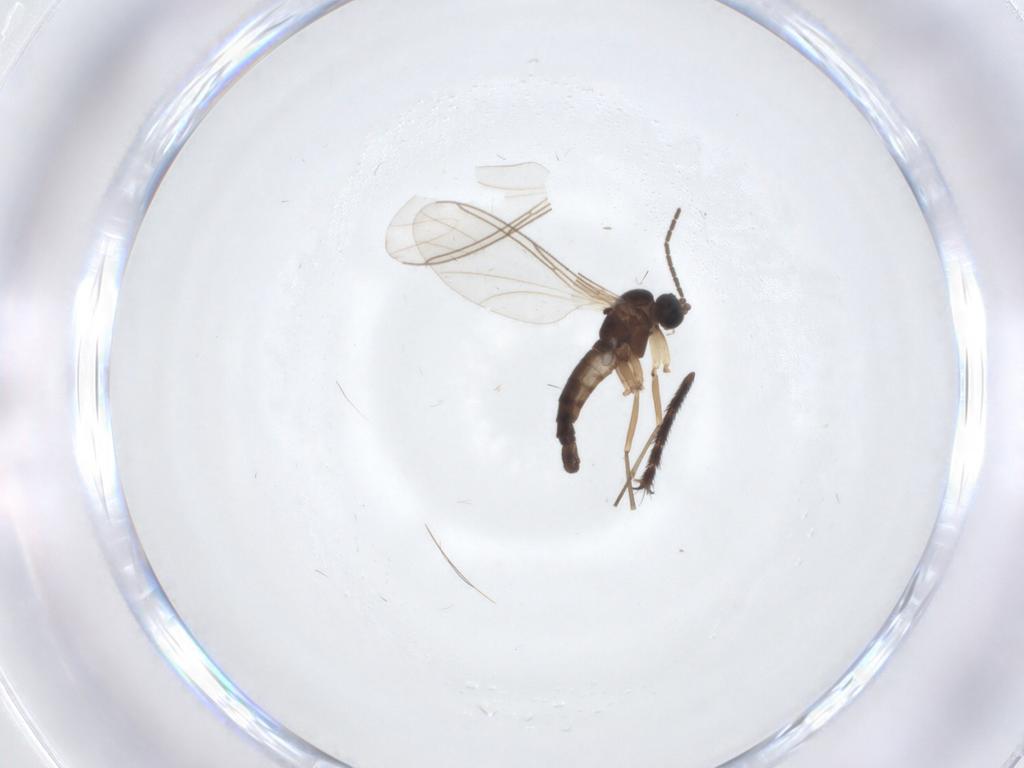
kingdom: Animalia
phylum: Arthropoda
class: Insecta
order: Diptera
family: Sciaridae
